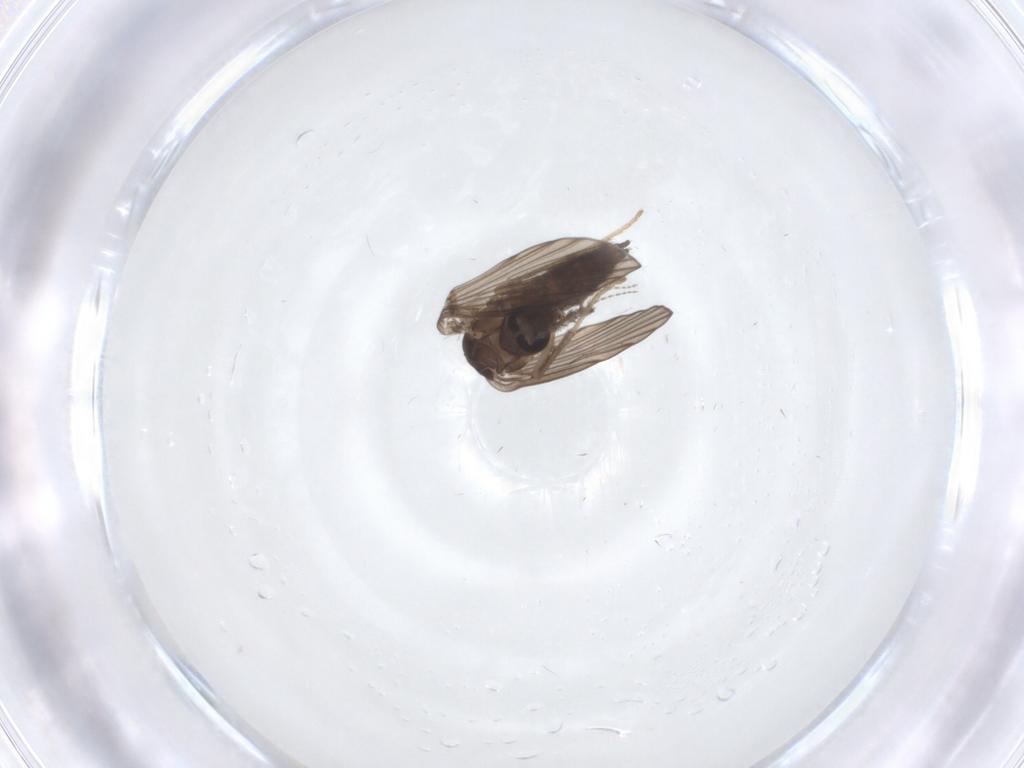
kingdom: Animalia
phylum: Arthropoda
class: Insecta
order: Diptera
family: Psychodidae
